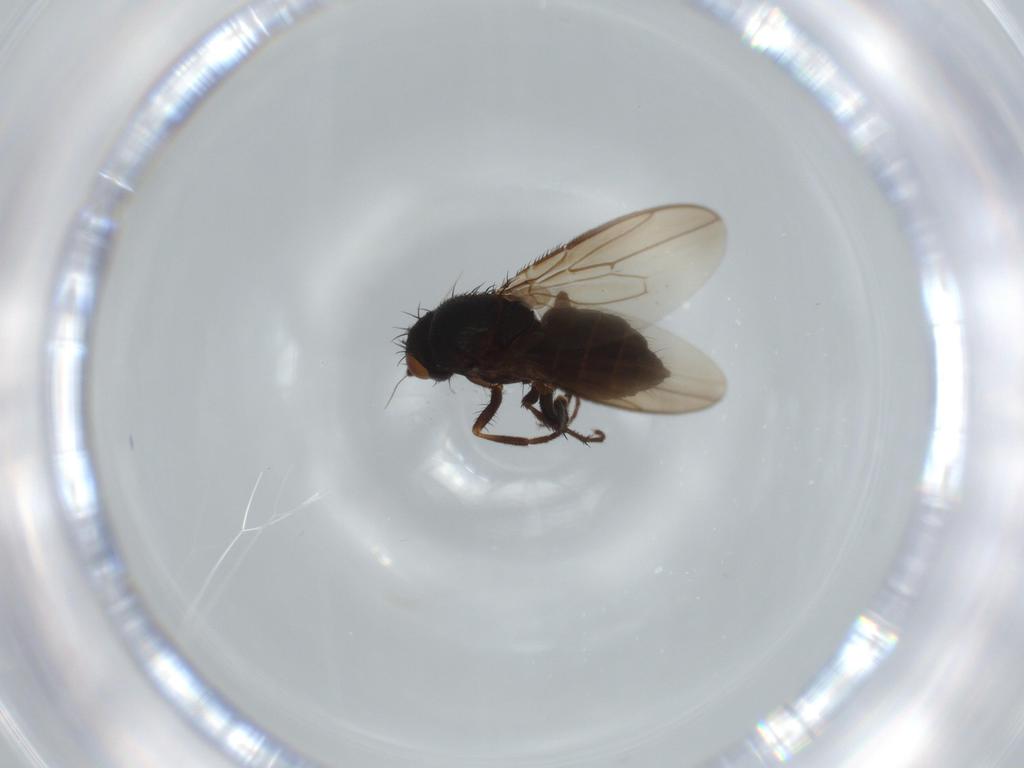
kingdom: Animalia
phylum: Arthropoda
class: Insecta
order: Diptera
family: Sphaeroceridae
